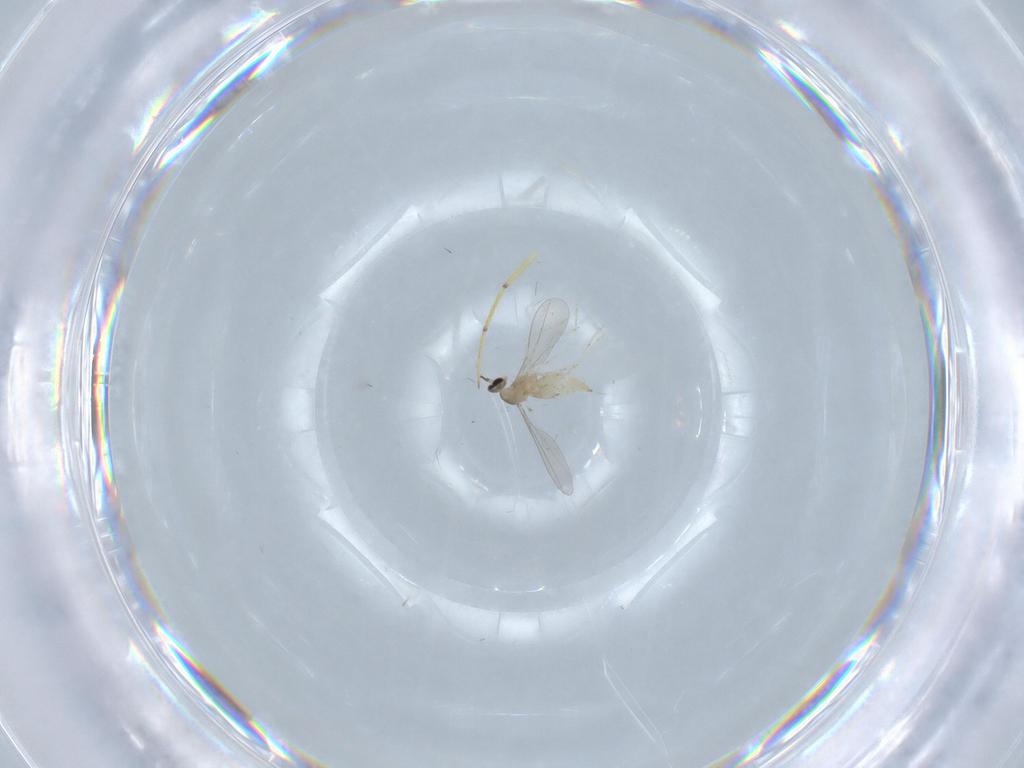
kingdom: Animalia
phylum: Arthropoda
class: Insecta
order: Diptera
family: Cecidomyiidae
